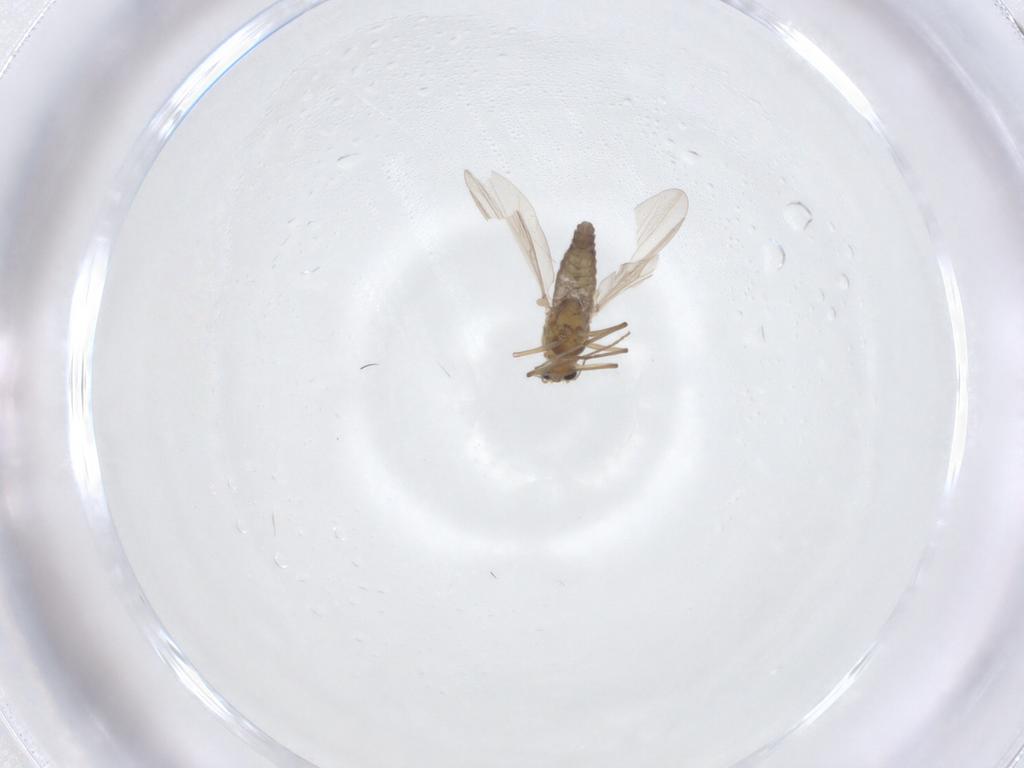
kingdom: Animalia
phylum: Arthropoda
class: Insecta
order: Diptera
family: Chironomidae
